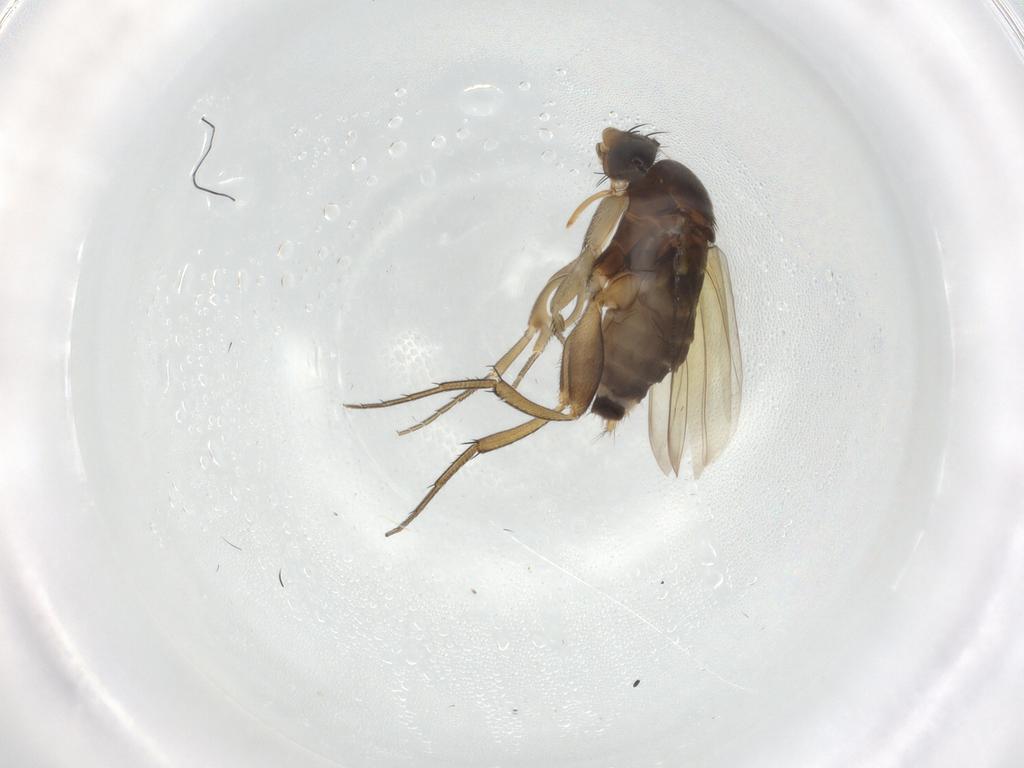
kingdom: Animalia
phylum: Arthropoda
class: Insecta
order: Diptera
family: Phoridae
